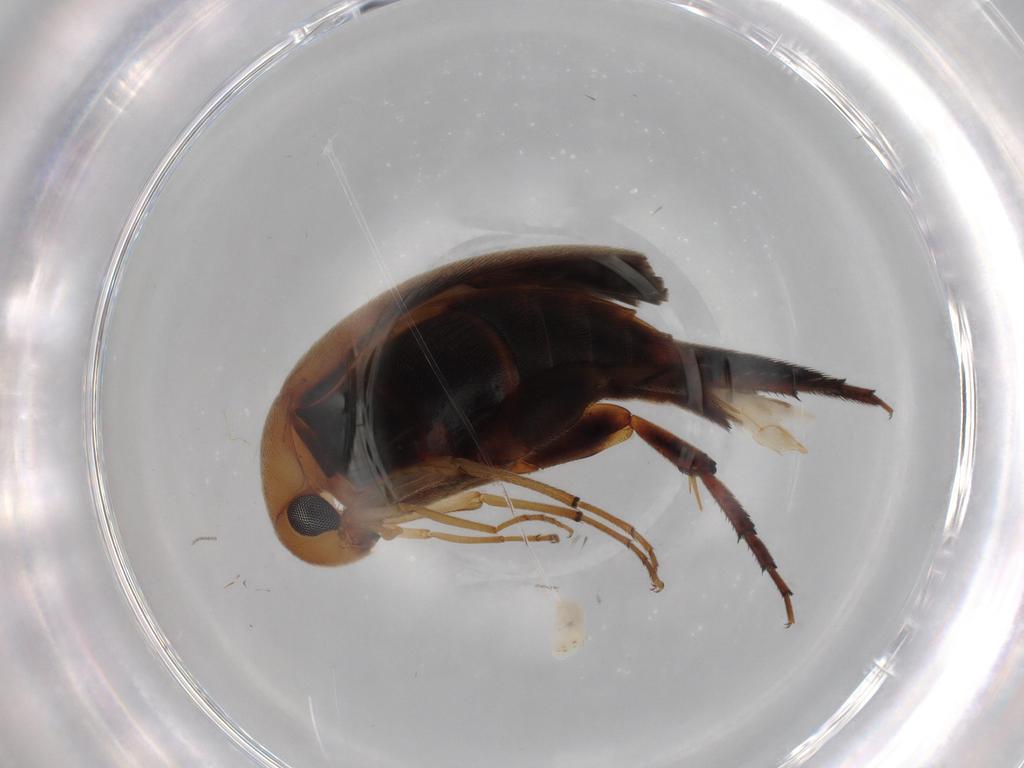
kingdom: Animalia
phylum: Arthropoda
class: Insecta
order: Coleoptera
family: Mordellidae
